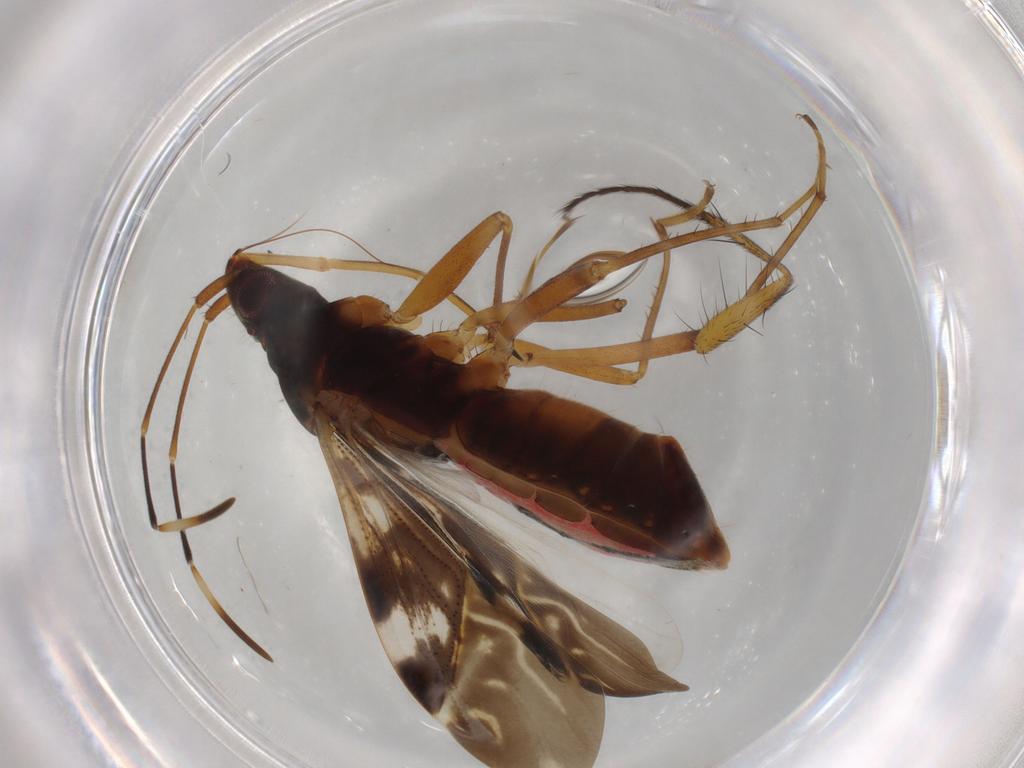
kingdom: Animalia
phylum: Arthropoda
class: Insecta
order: Hemiptera
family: Rhyparochromidae
